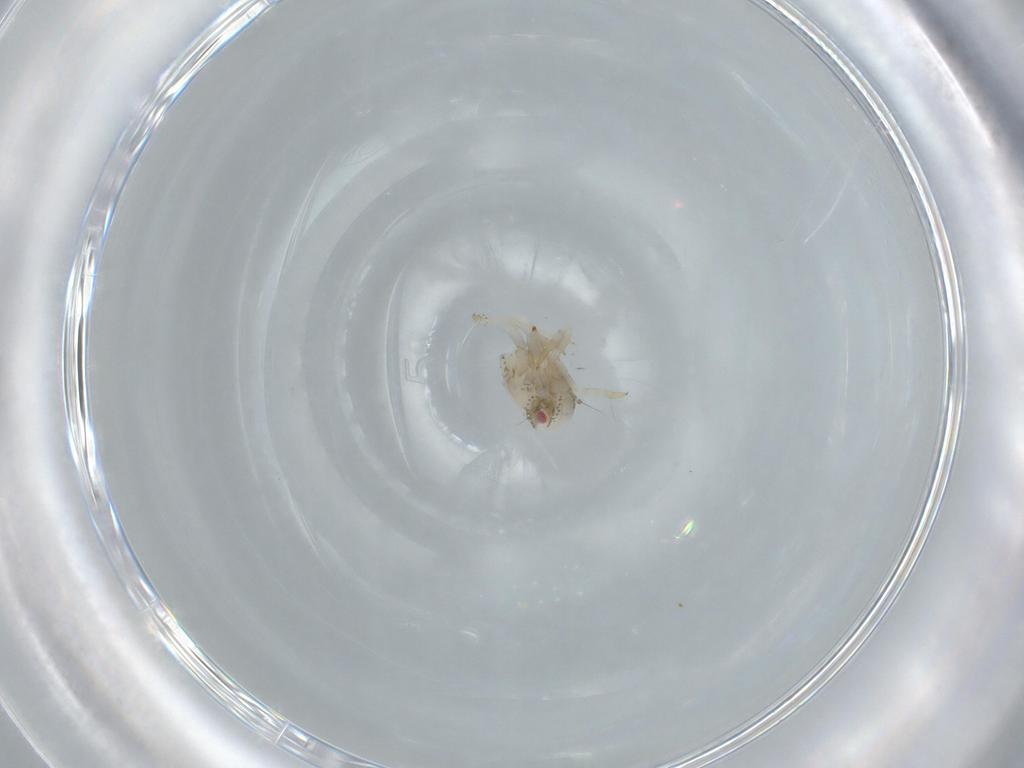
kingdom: Animalia
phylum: Arthropoda
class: Insecta
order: Hemiptera
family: Acanaloniidae
